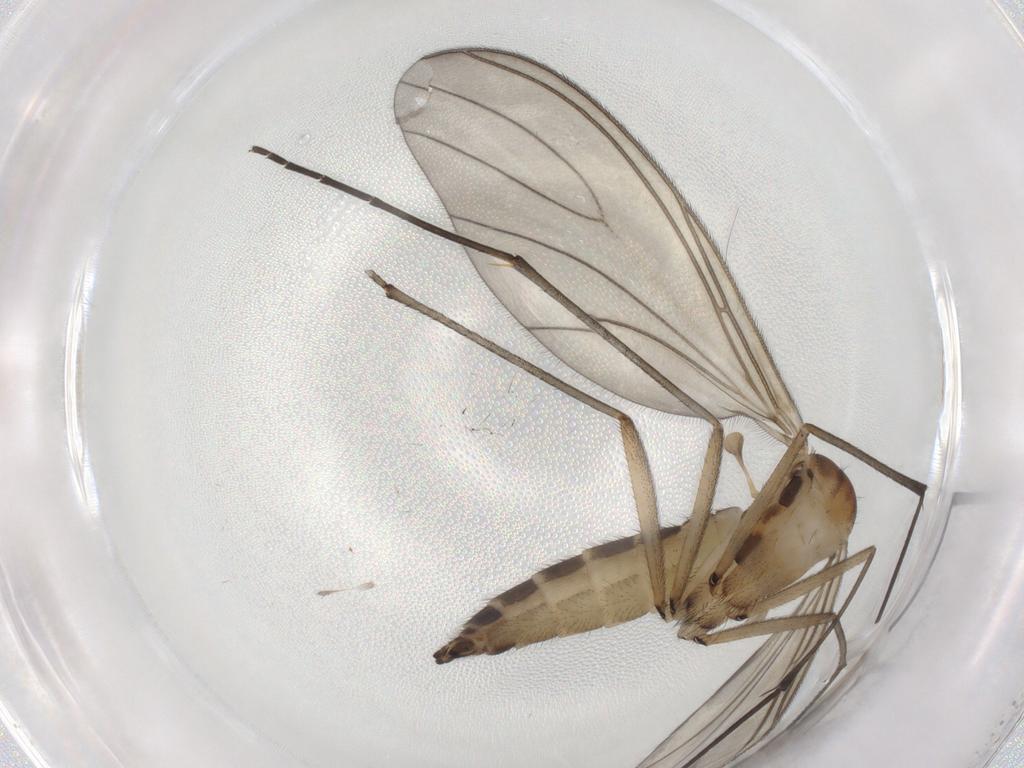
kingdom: Animalia
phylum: Arthropoda
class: Insecta
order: Diptera
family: Sciaridae
